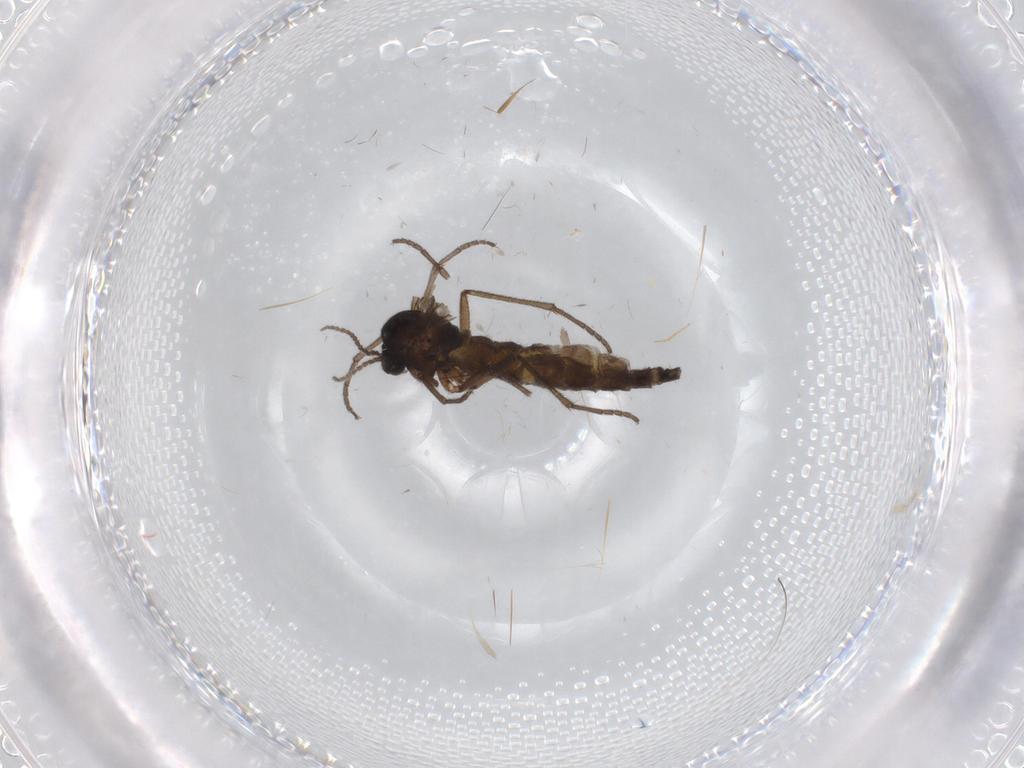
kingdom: Animalia
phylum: Arthropoda
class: Insecta
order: Diptera
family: Sciaridae
